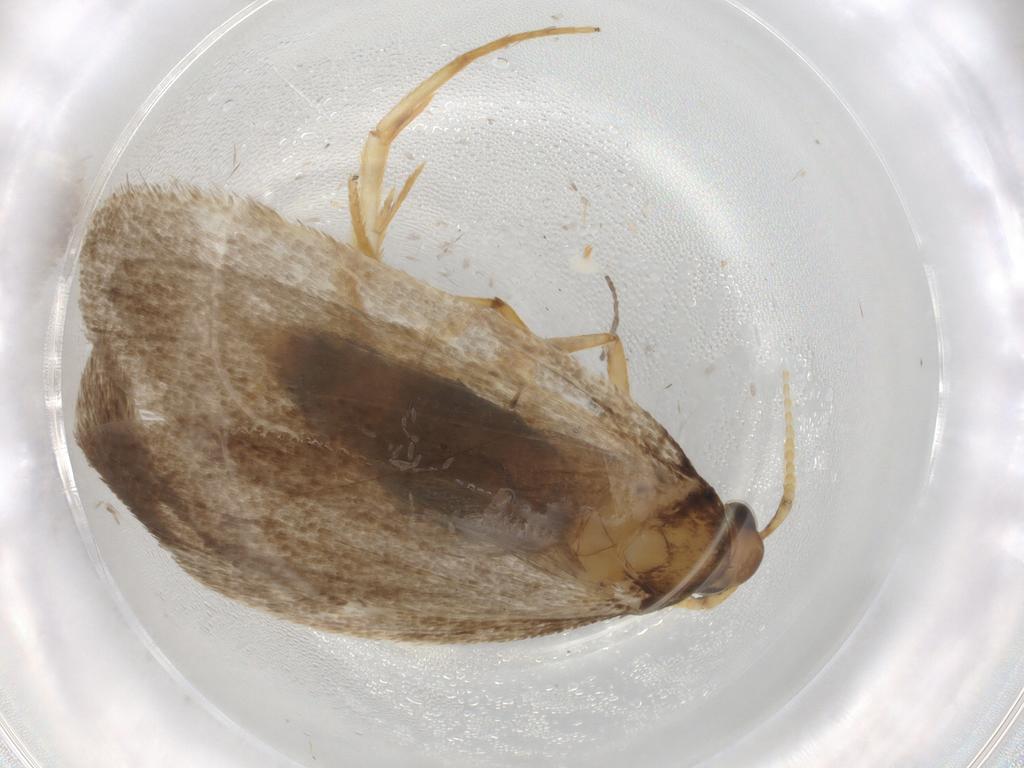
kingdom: Animalia
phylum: Arthropoda
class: Insecta
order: Lepidoptera
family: Lecithoceridae
